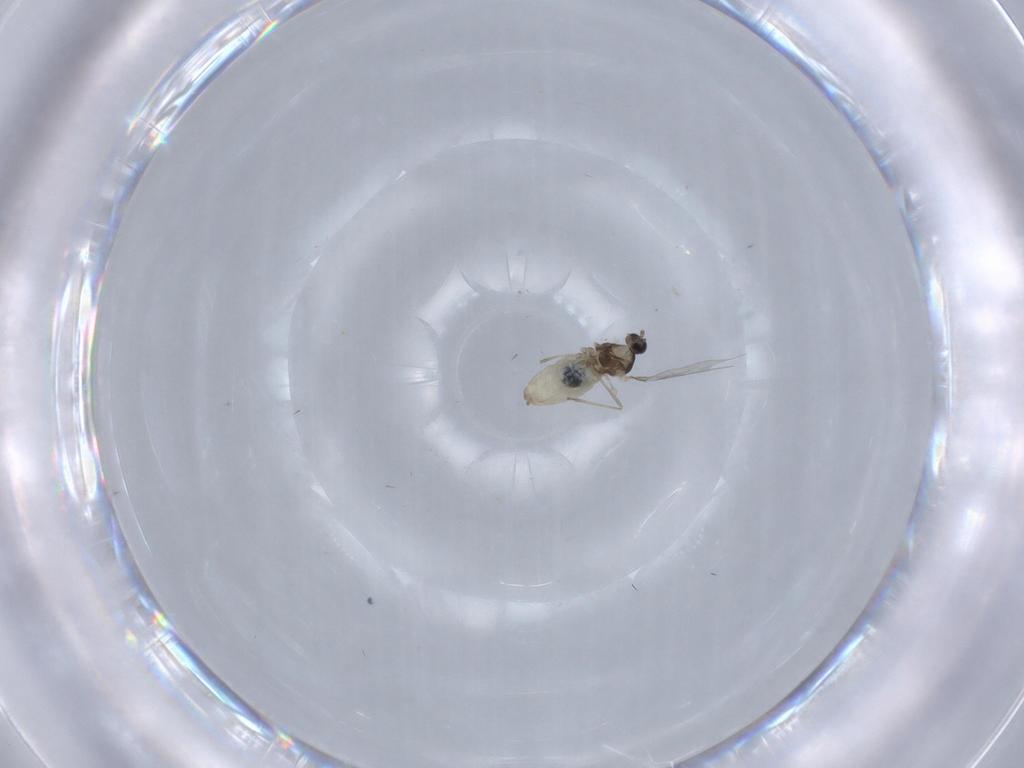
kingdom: Animalia
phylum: Arthropoda
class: Insecta
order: Diptera
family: Cecidomyiidae
